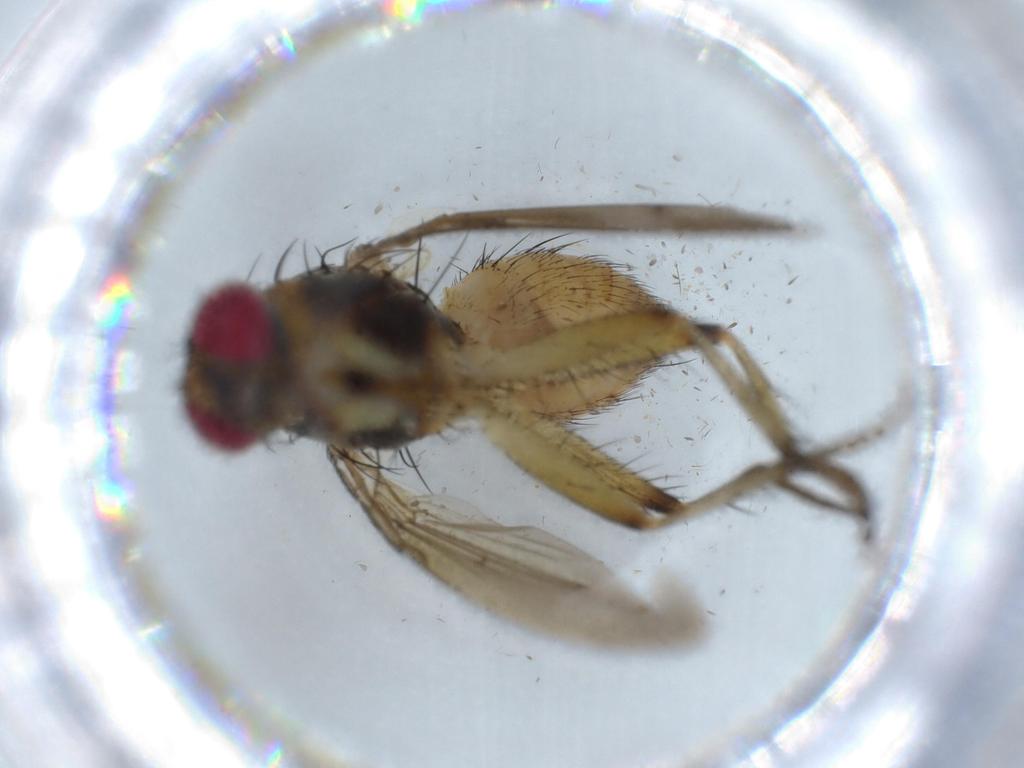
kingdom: Animalia
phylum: Arthropoda
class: Insecta
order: Diptera
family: Muscidae
